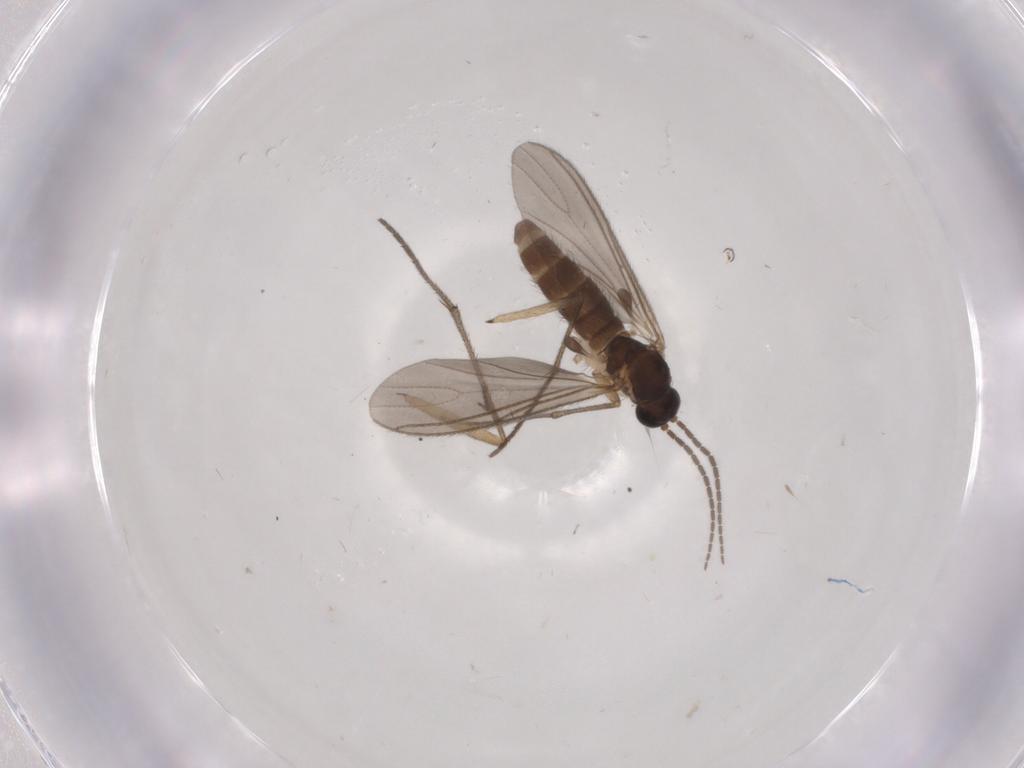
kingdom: Animalia
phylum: Arthropoda
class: Insecta
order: Diptera
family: Sciaridae
